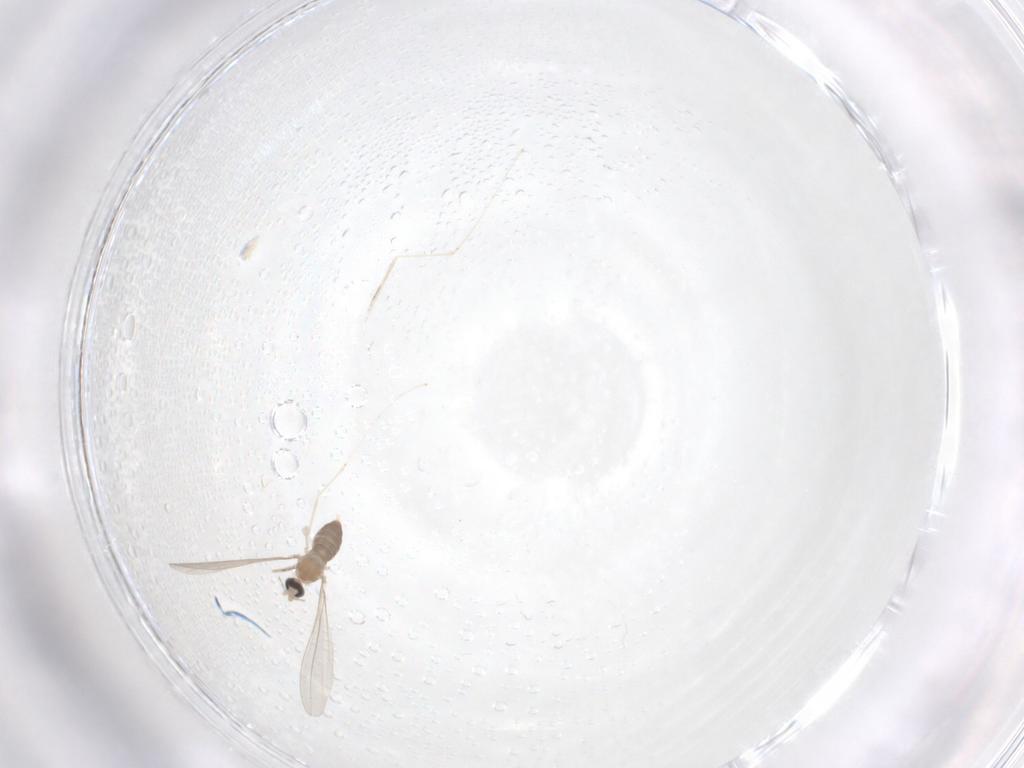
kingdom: Animalia
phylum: Arthropoda
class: Insecta
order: Diptera
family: Cecidomyiidae
